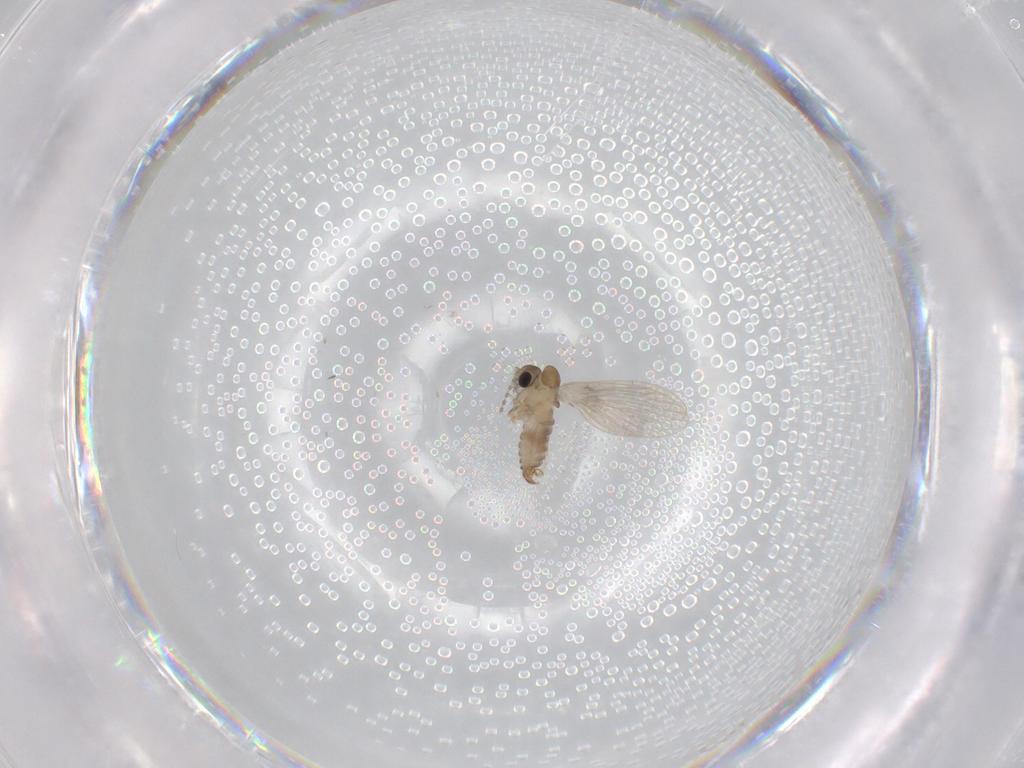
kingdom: Animalia
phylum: Arthropoda
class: Insecta
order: Diptera
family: Cecidomyiidae
